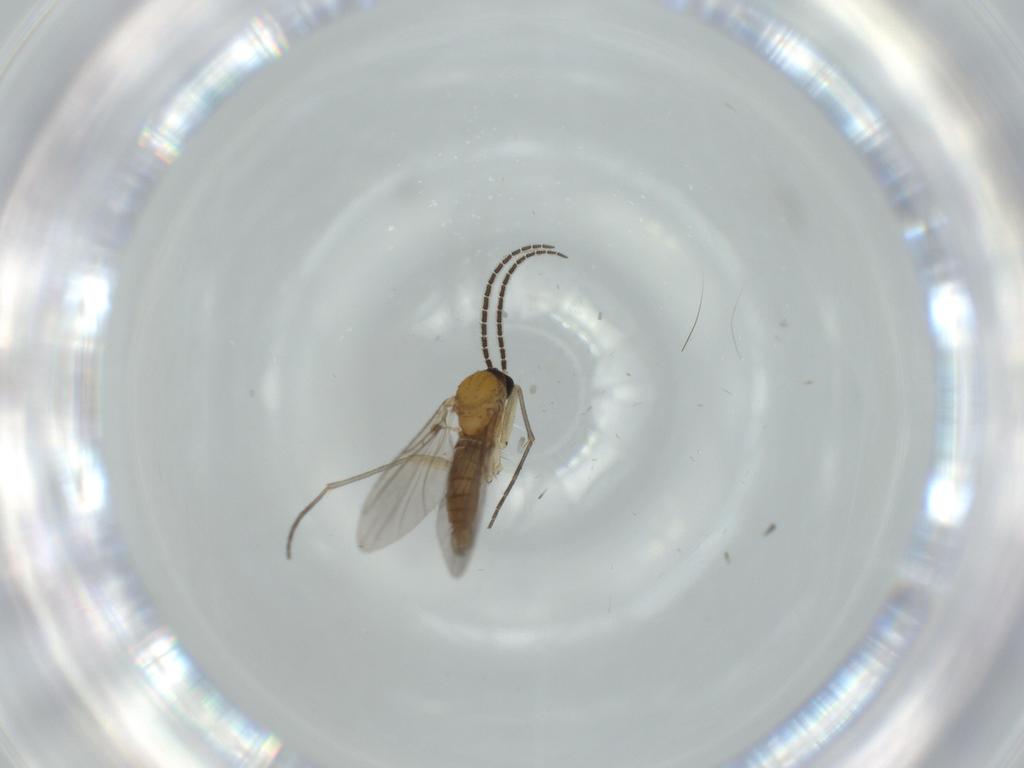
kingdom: Animalia
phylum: Arthropoda
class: Insecta
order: Diptera
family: Sciaridae
